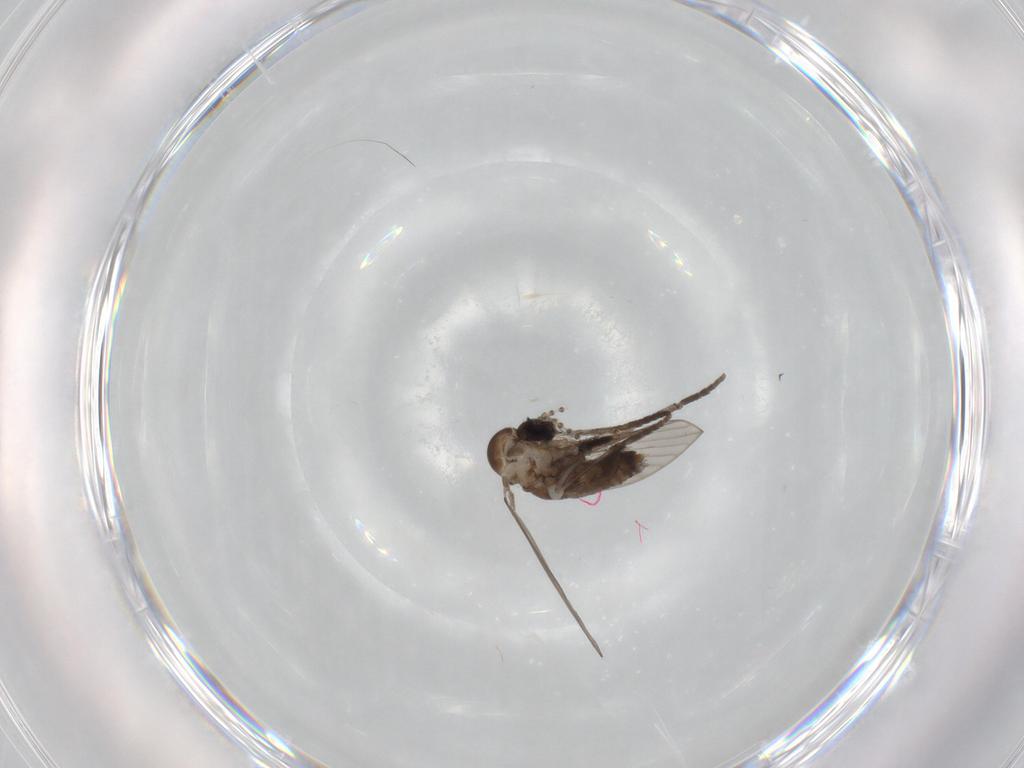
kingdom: Animalia
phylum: Arthropoda
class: Insecta
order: Diptera
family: Psychodidae
